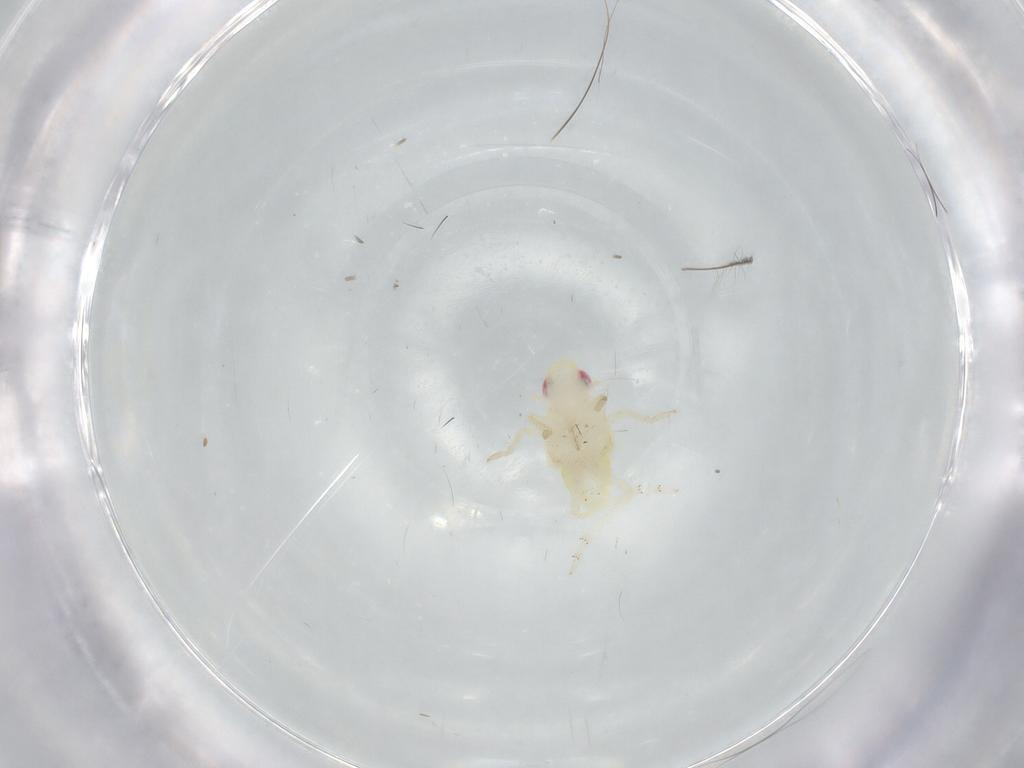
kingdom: Animalia
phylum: Arthropoda
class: Insecta
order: Hemiptera
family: Tropiduchidae
